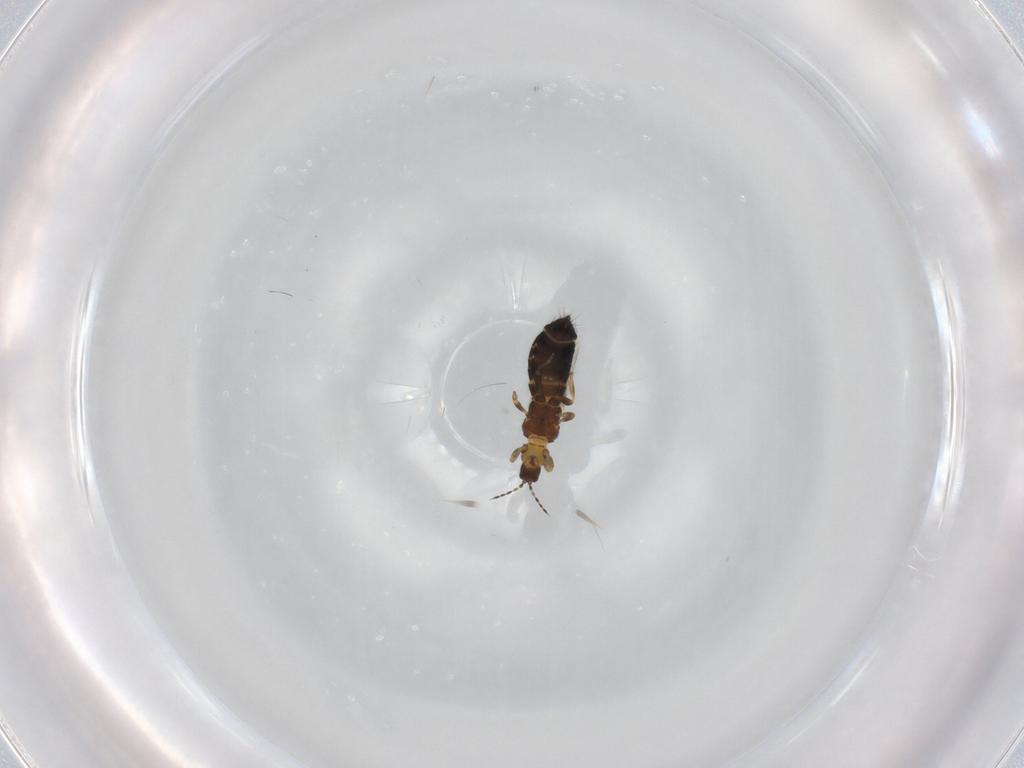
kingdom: Animalia
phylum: Arthropoda
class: Insecta
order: Thysanoptera
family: Thripidae
